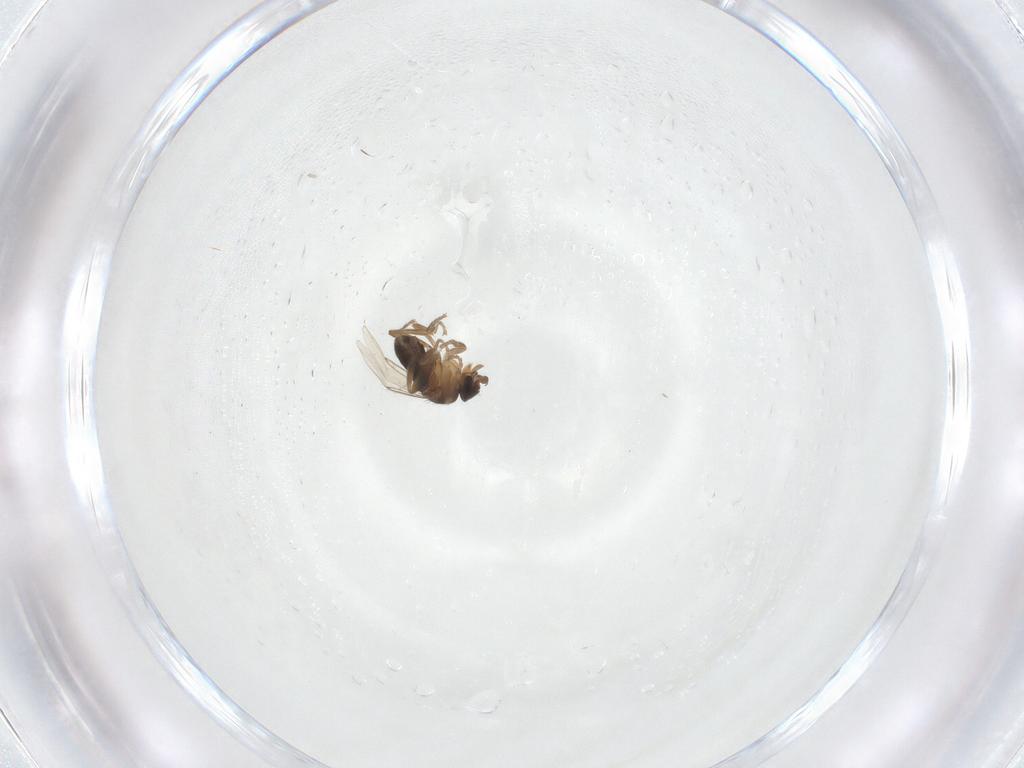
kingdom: Animalia
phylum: Arthropoda
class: Insecta
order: Diptera
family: Phoridae
